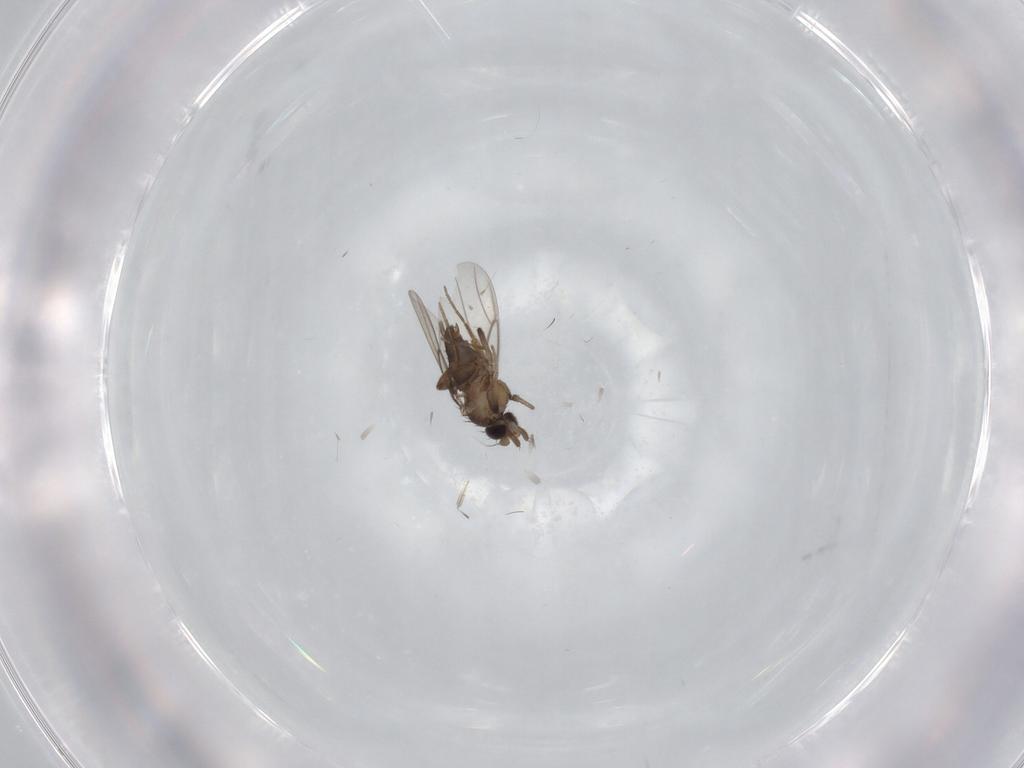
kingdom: Animalia
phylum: Arthropoda
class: Insecta
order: Diptera
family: Phoridae
